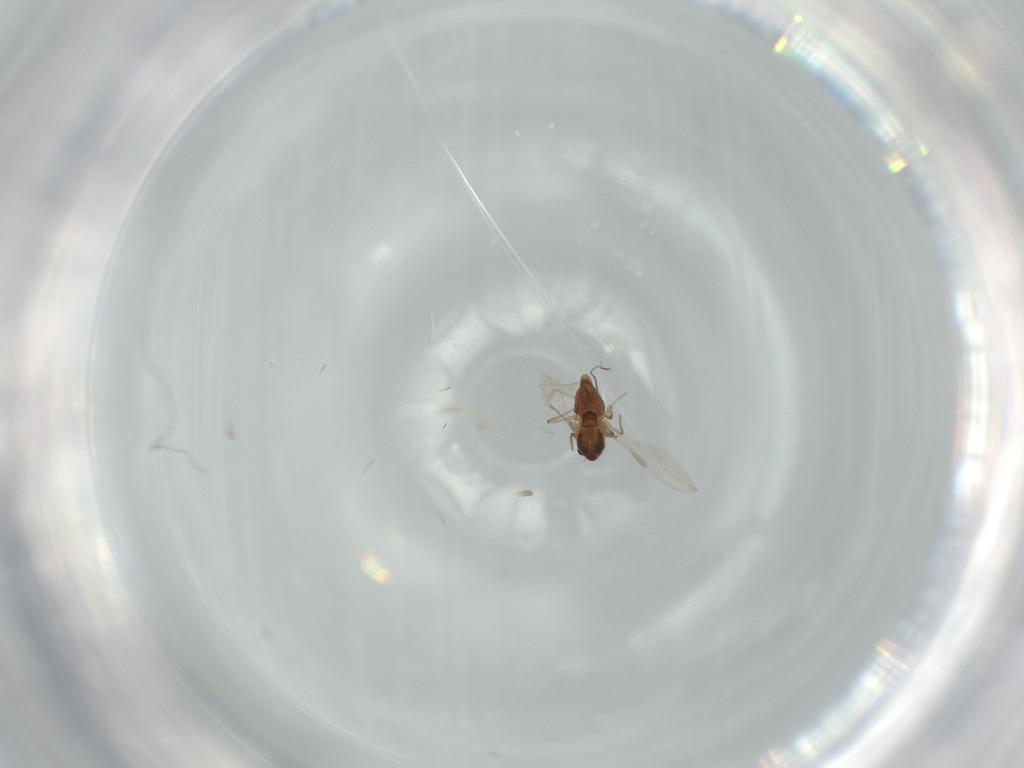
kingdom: Animalia
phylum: Arthropoda
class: Insecta
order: Diptera
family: Chironomidae
